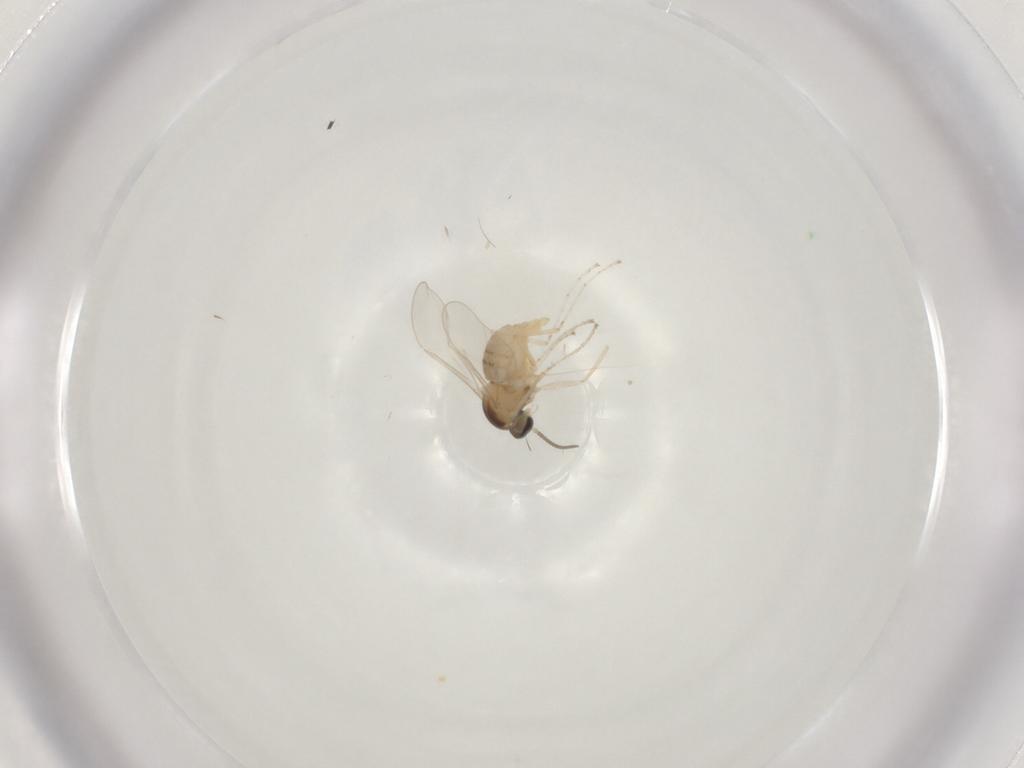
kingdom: Animalia
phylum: Arthropoda
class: Insecta
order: Diptera
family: Cecidomyiidae
